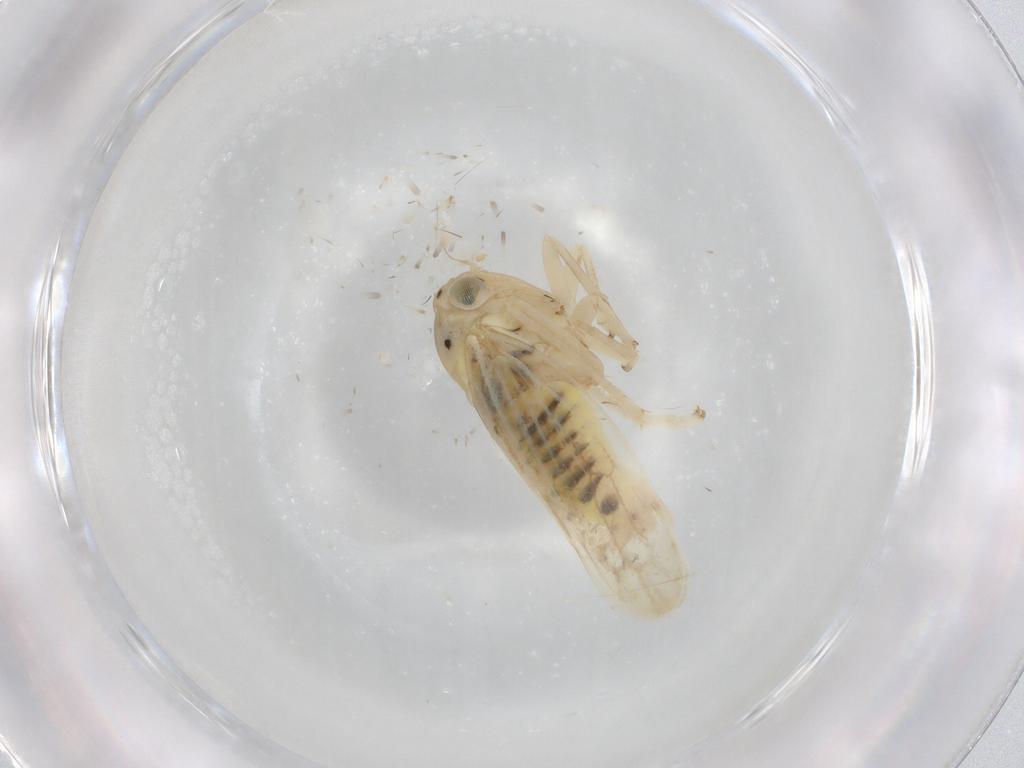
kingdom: Animalia
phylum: Arthropoda
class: Insecta
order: Hemiptera
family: Cicadellidae
